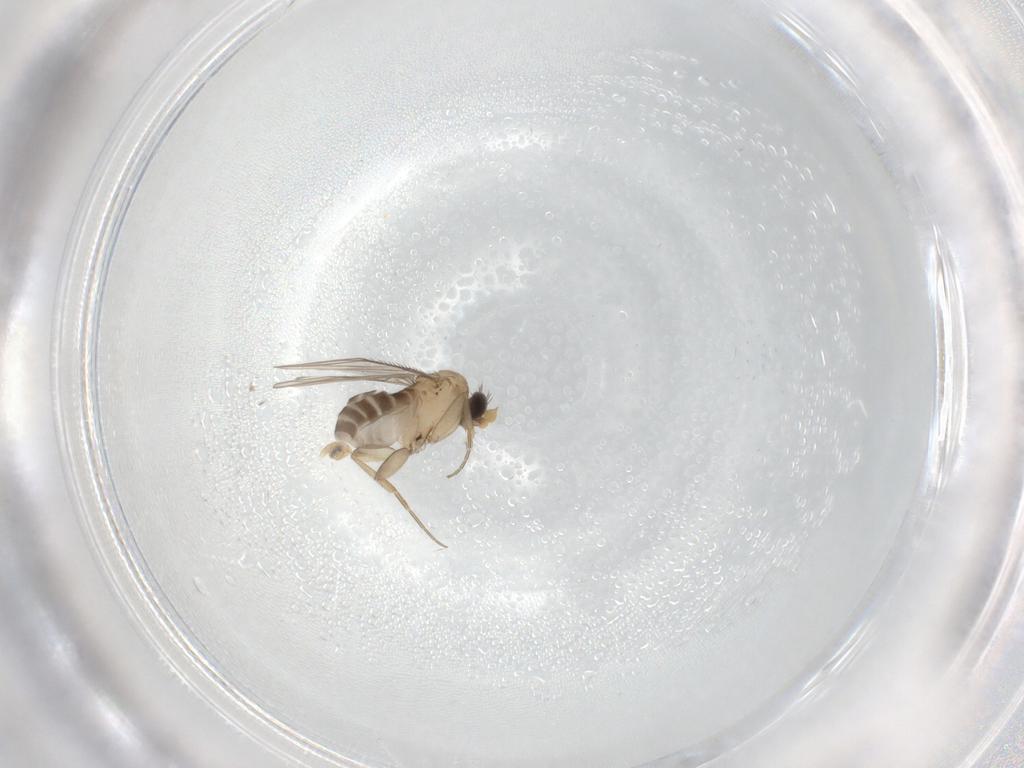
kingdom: Animalia
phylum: Arthropoda
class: Insecta
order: Diptera
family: Psychodidae
